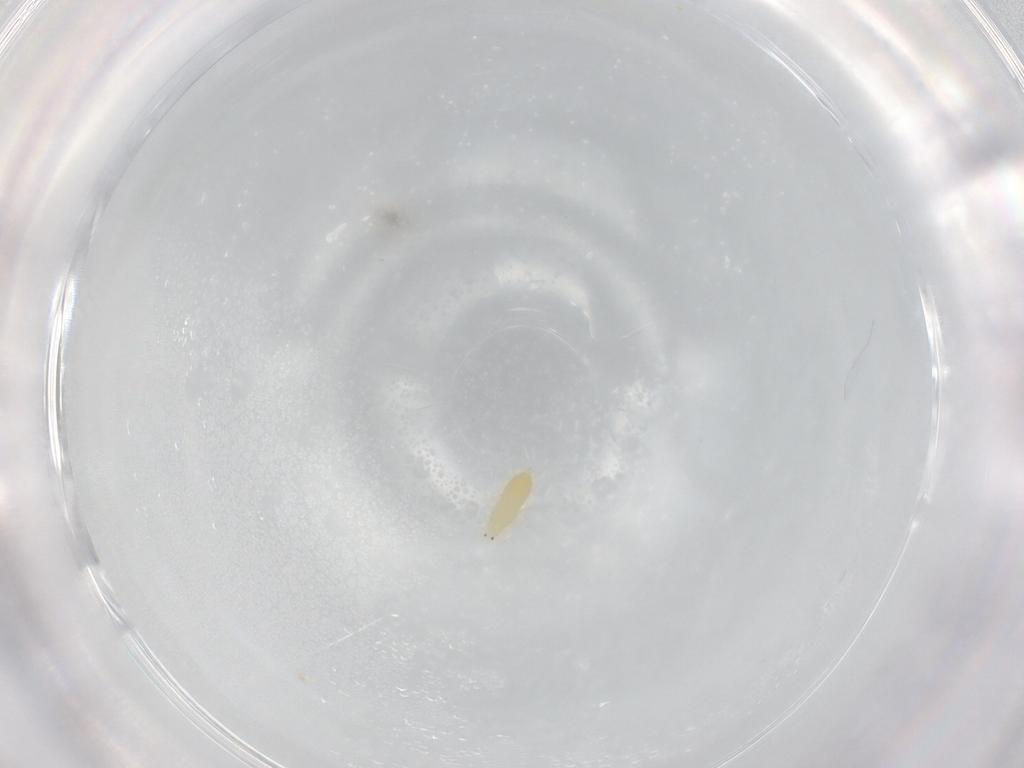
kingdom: Animalia
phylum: Arthropoda
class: Insecta
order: Thysanoptera
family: Thripidae
